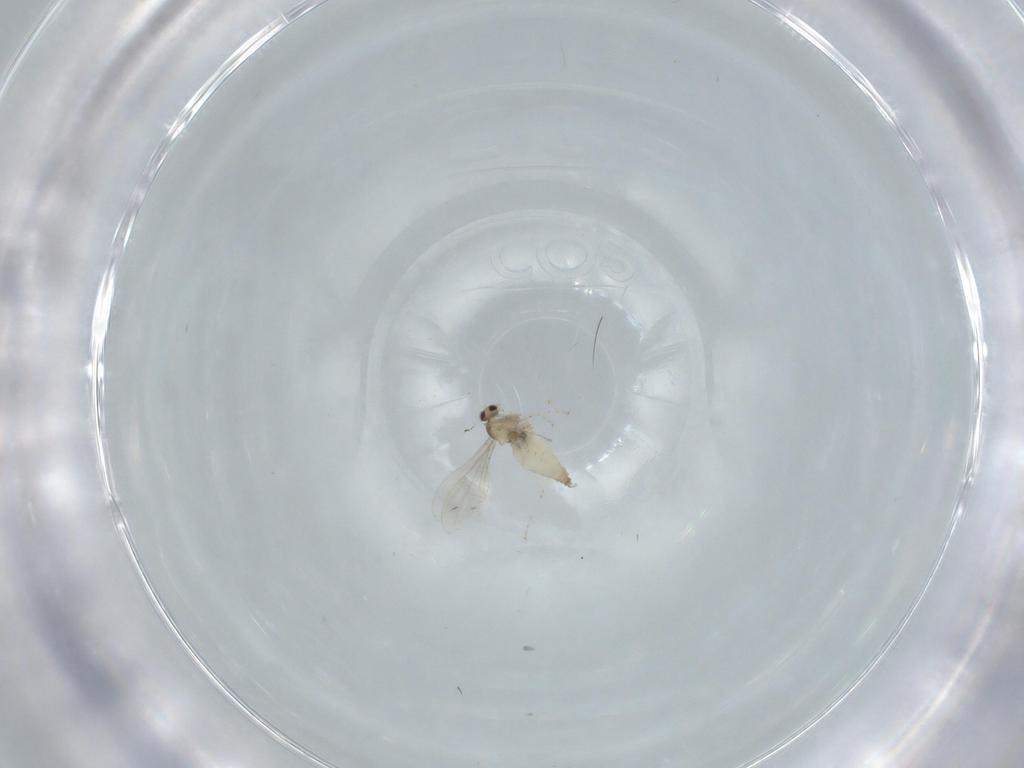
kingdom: Animalia
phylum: Arthropoda
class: Insecta
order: Diptera
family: Cecidomyiidae
